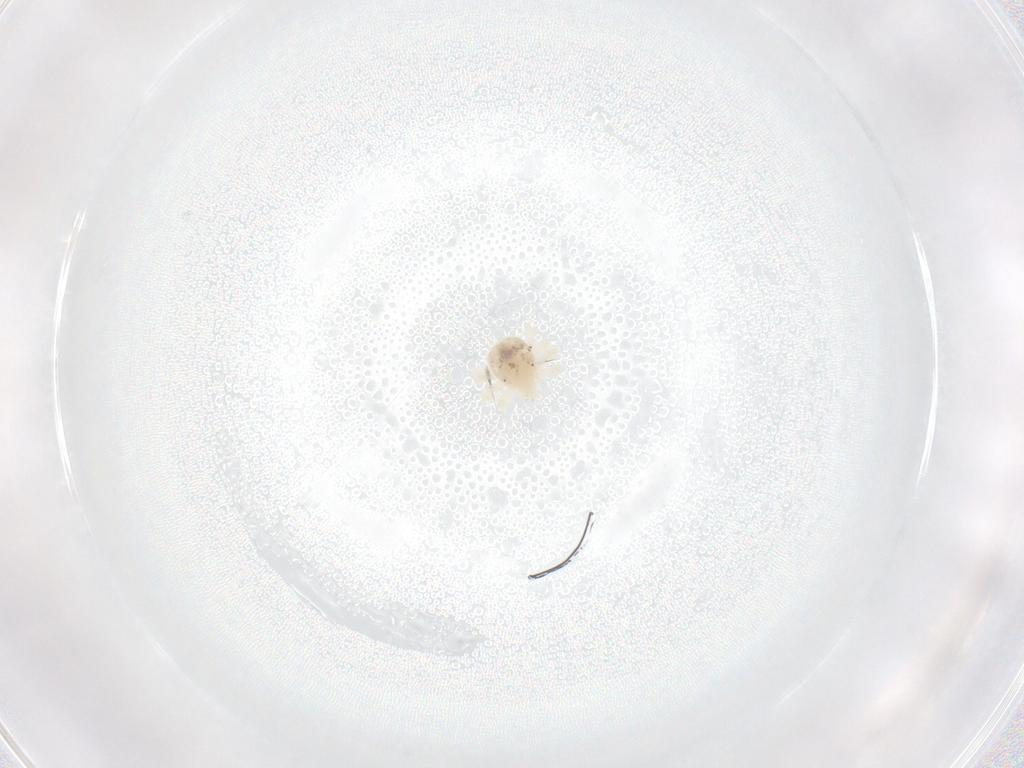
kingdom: Animalia
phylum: Arthropoda
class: Arachnida
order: Trombidiformes
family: Anystidae
